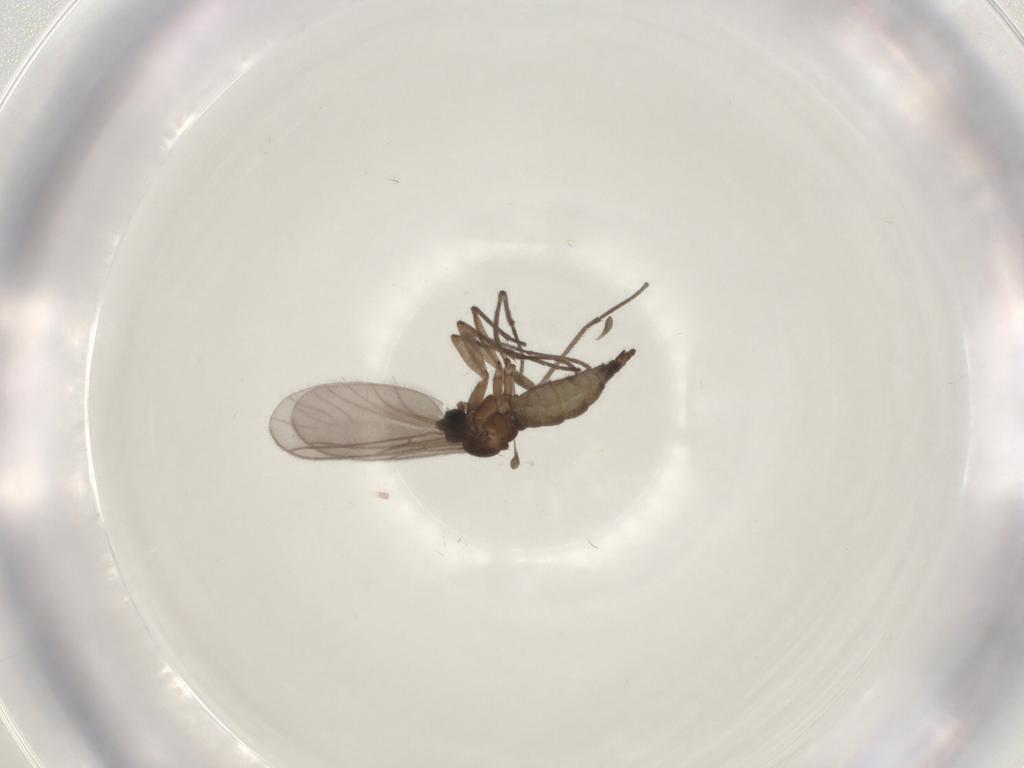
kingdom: Animalia
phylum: Arthropoda
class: Insecta
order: Diptera
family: Sciaridae
